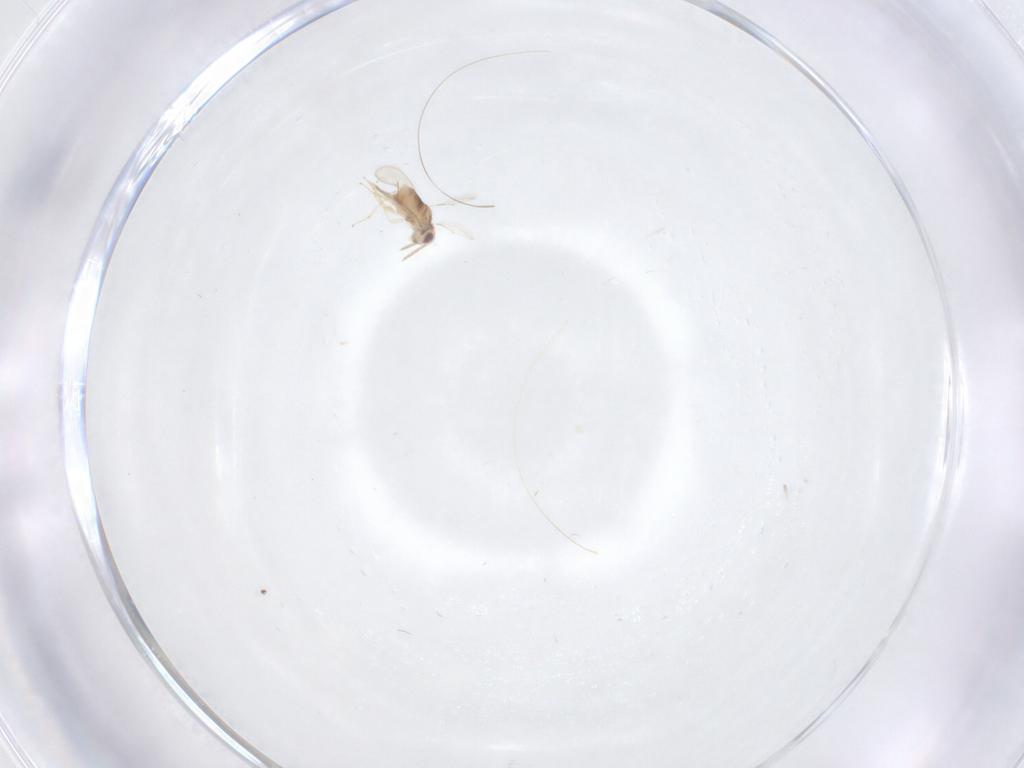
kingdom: Animalia
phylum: Arthropoda
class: Insecta
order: Hymenoptera
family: Aphelinidae
